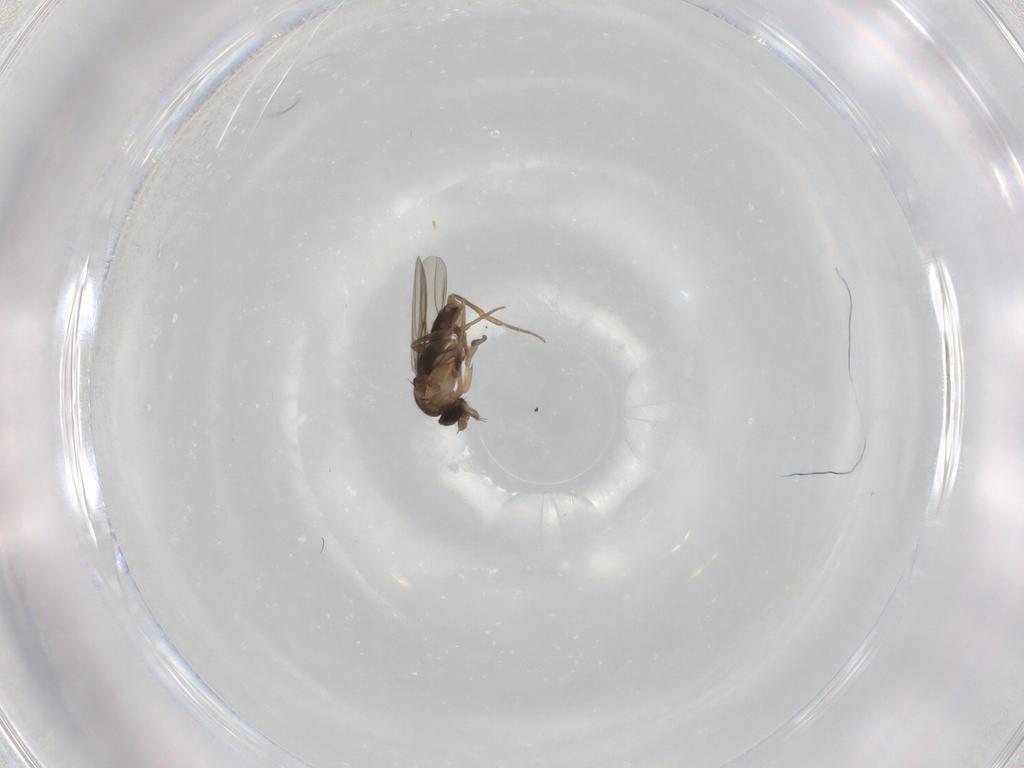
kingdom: Animalia
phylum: Arthropoda
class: Insecta
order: Diptera
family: Phoridae
